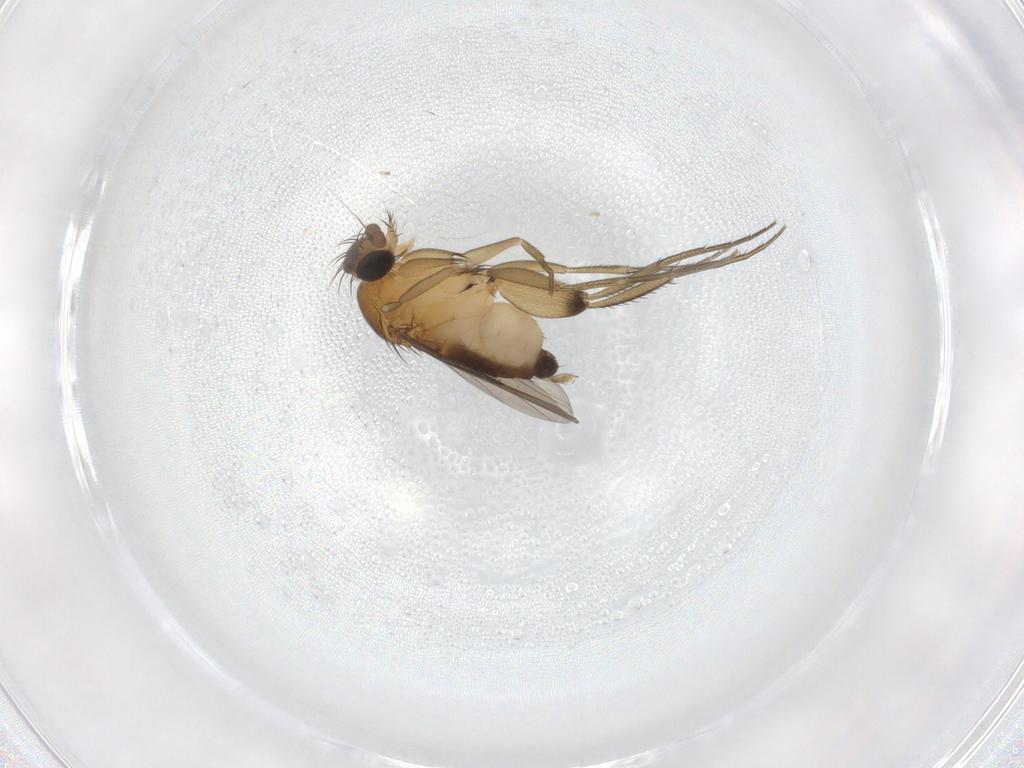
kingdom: Animalia
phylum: Arthropoda
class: Insecta
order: Diptera
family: Phoridae
